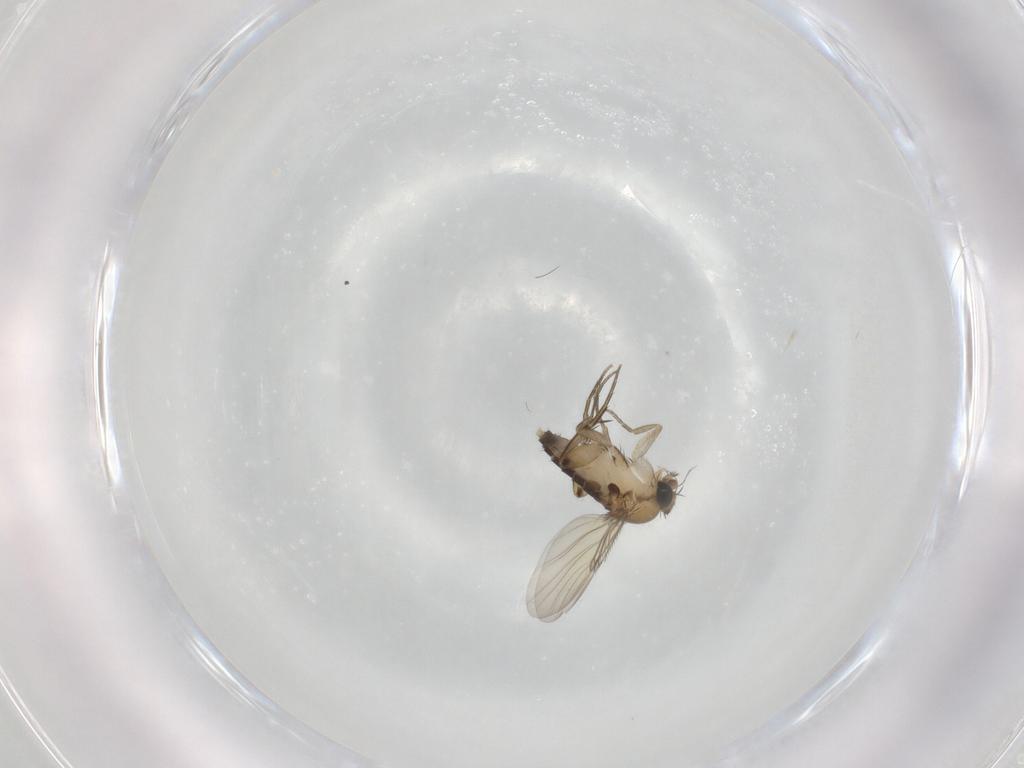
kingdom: Animalia
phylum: Arthropoda
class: Insecta
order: Diptera
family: Phoridae
